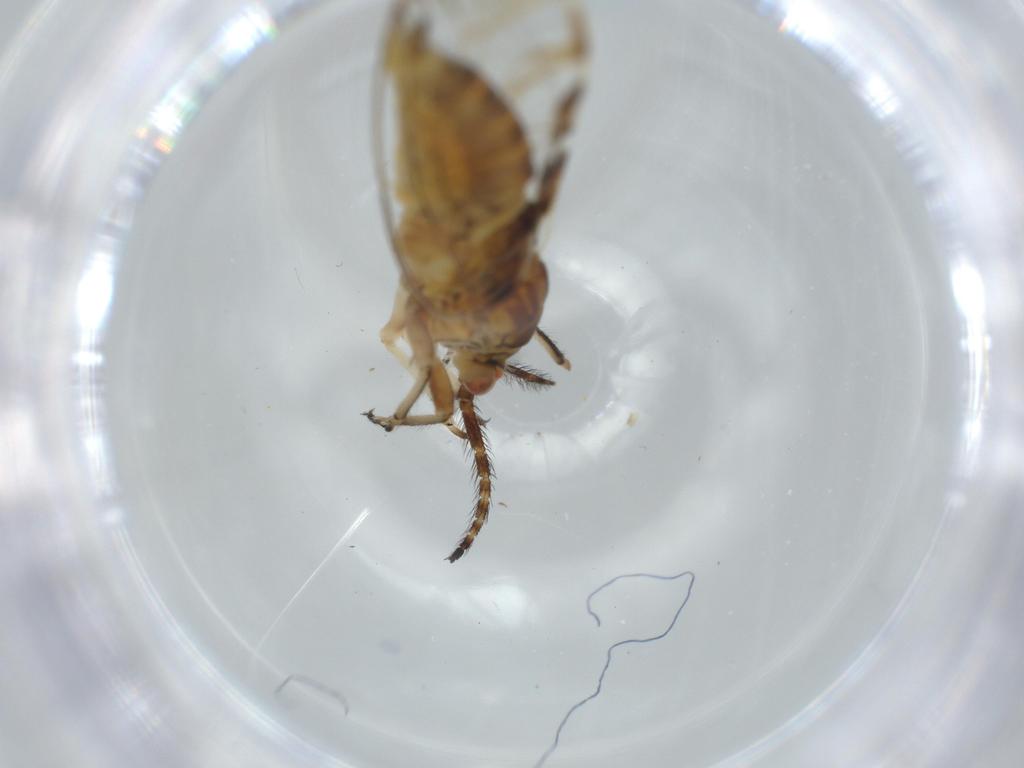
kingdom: Animalia
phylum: Arthropoda
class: Insecta
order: Hemiptera
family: Aphididae
